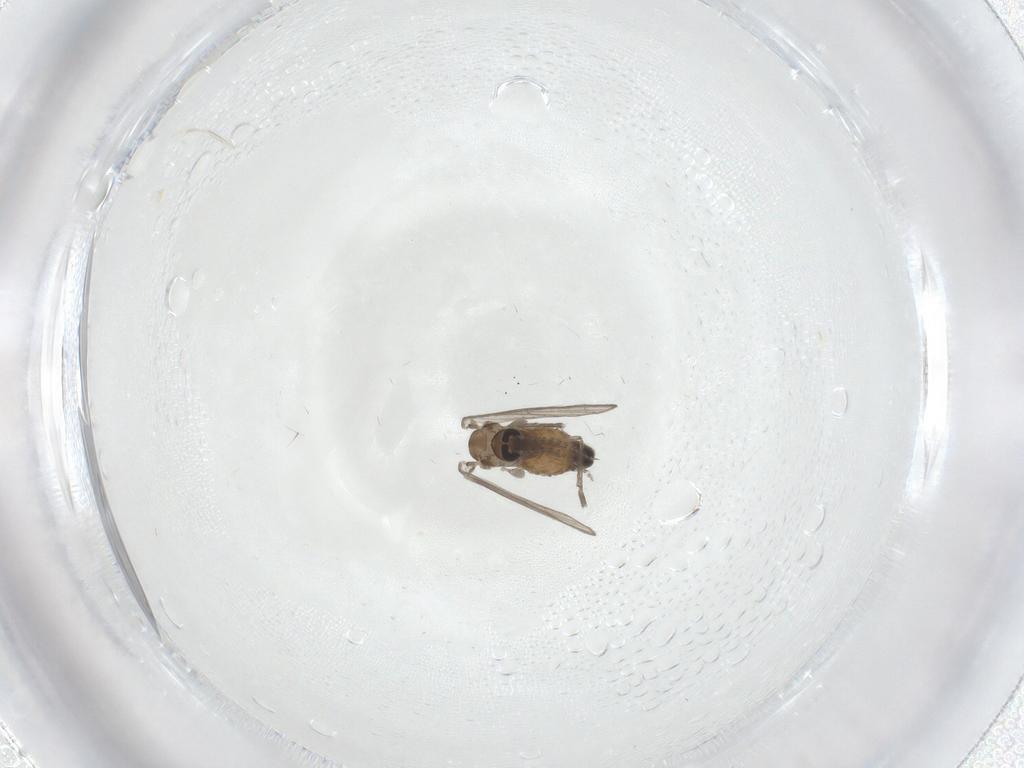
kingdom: Animalia
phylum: Arthropoda
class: Insecta
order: Diptera
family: Psychodidae
